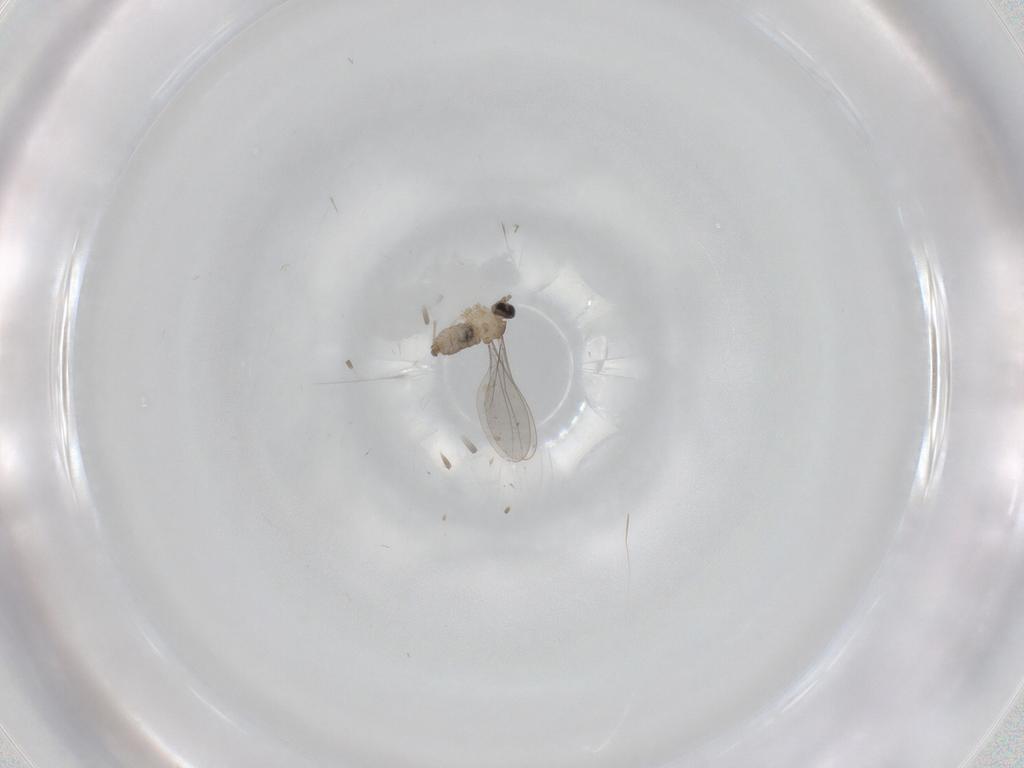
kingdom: Animalia
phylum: Arthropoda
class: Insecta
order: Diptera
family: Cecidomyiidae
